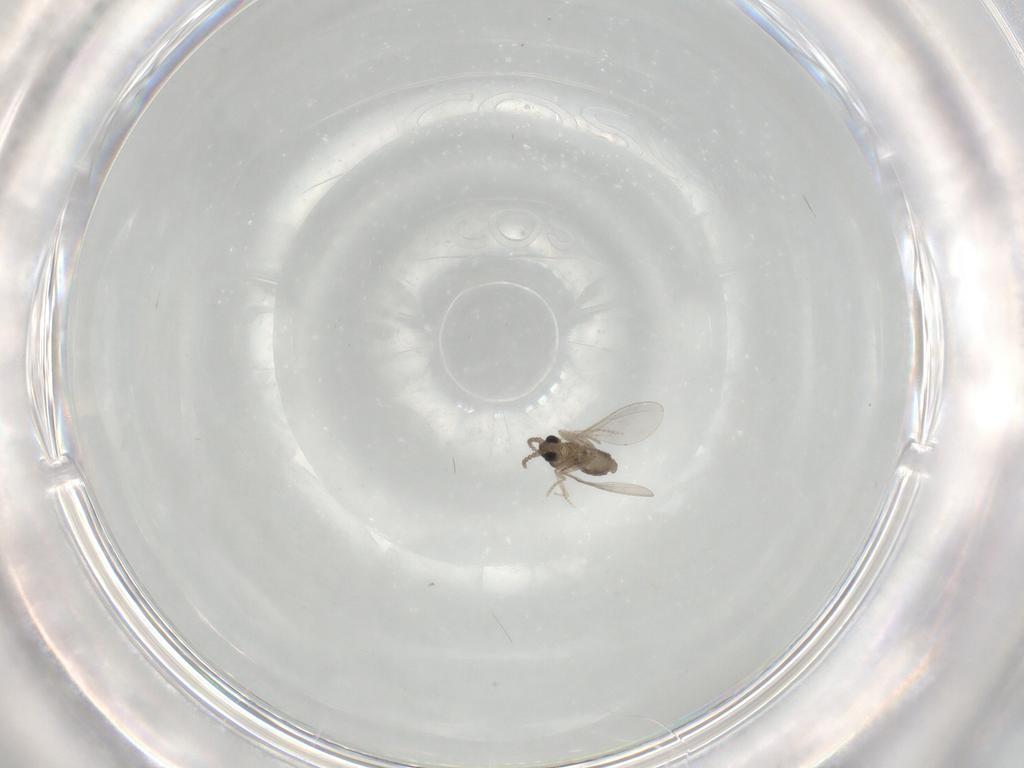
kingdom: Animalia
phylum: Arthropoda
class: Insecta
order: Diptera
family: Cecidomyiidae
